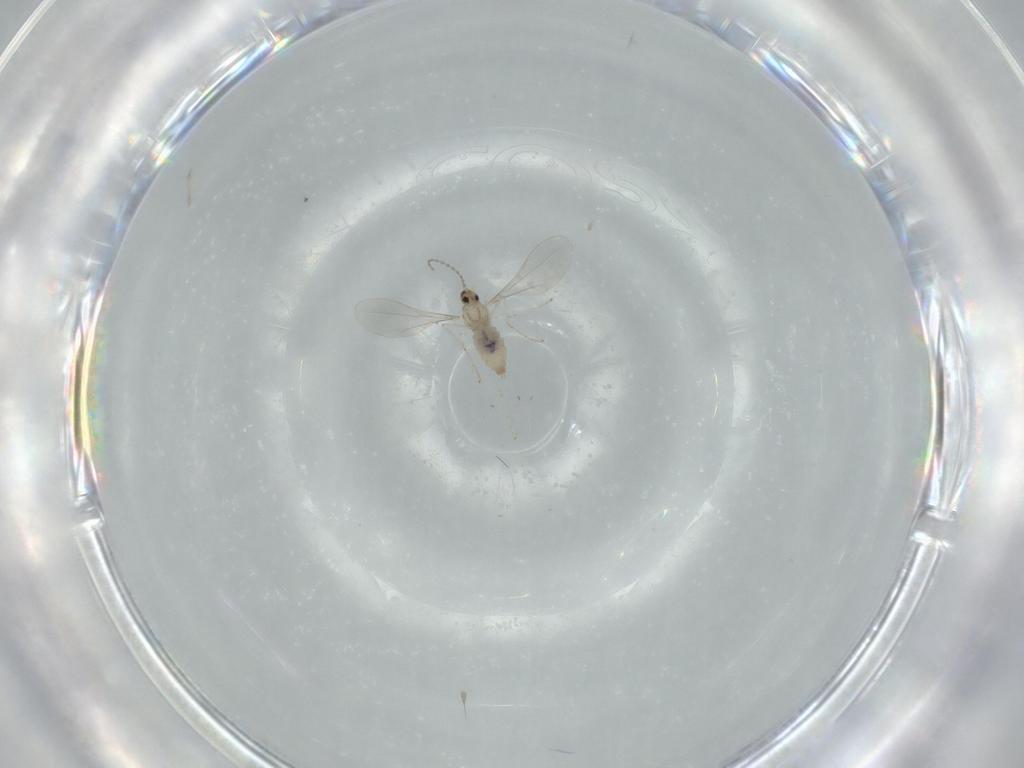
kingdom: Animalia
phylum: Arthropoda
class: Insecta
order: Diptera
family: Cecidomyiidae
